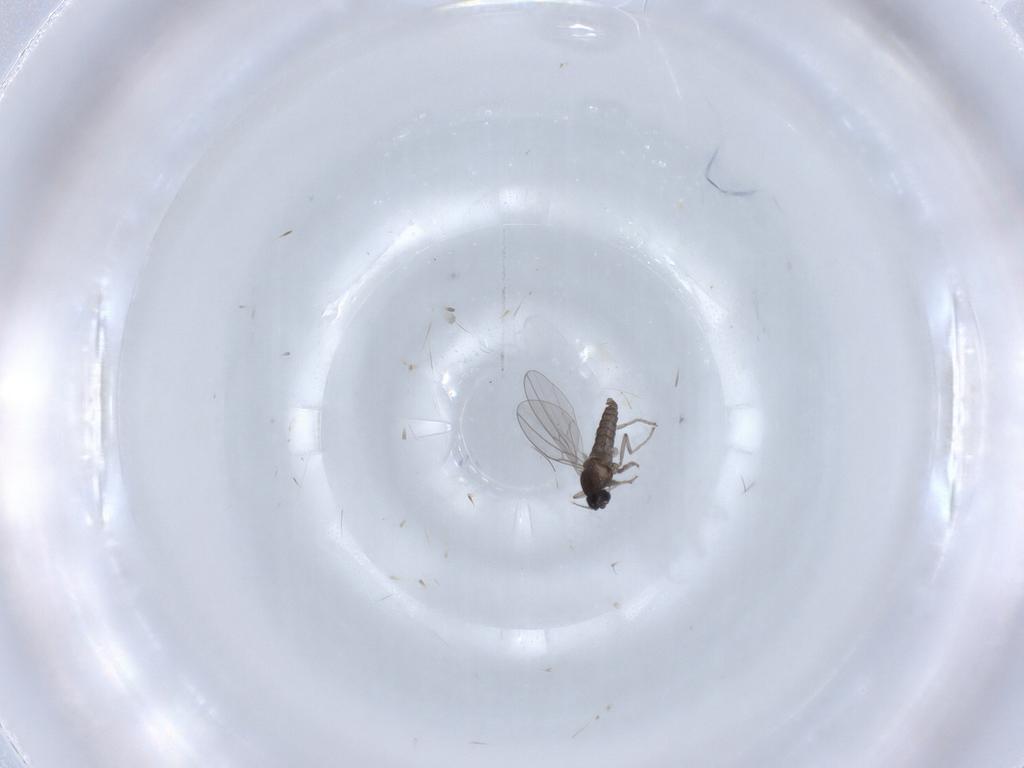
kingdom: Animalia
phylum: Arthropoda
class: Insecta
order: Diptera
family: Cecidomyiidae
